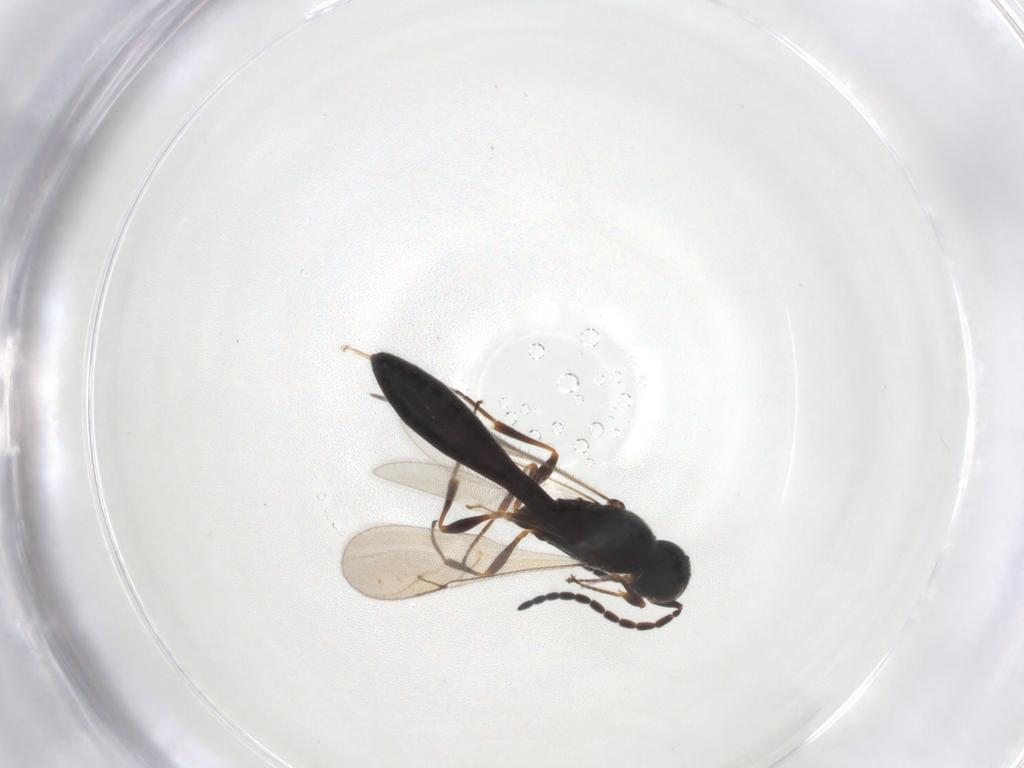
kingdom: Animalia
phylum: Arthropoda
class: Insecta
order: Hymenoptera
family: Scelionidae
